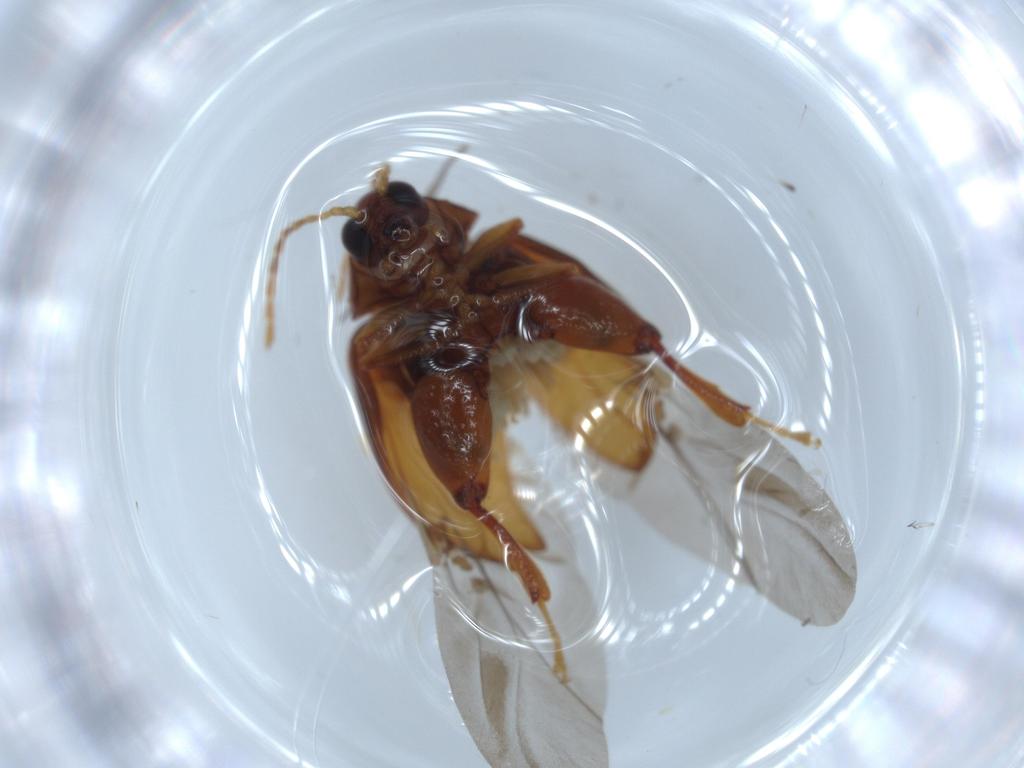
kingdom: Animalia
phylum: Arthropoda
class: Insecta
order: Coleoptera
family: Chrysomelidae
